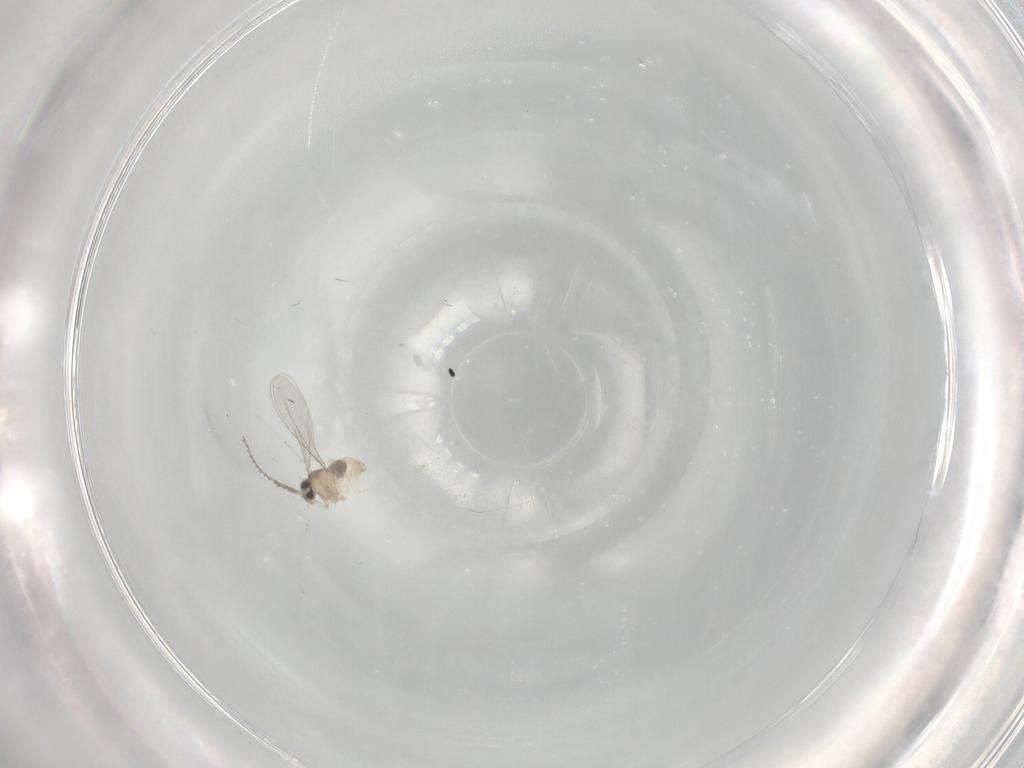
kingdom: Animalia
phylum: Arthropoda
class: Insecta
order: Diptera
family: Cecidomyiidae
